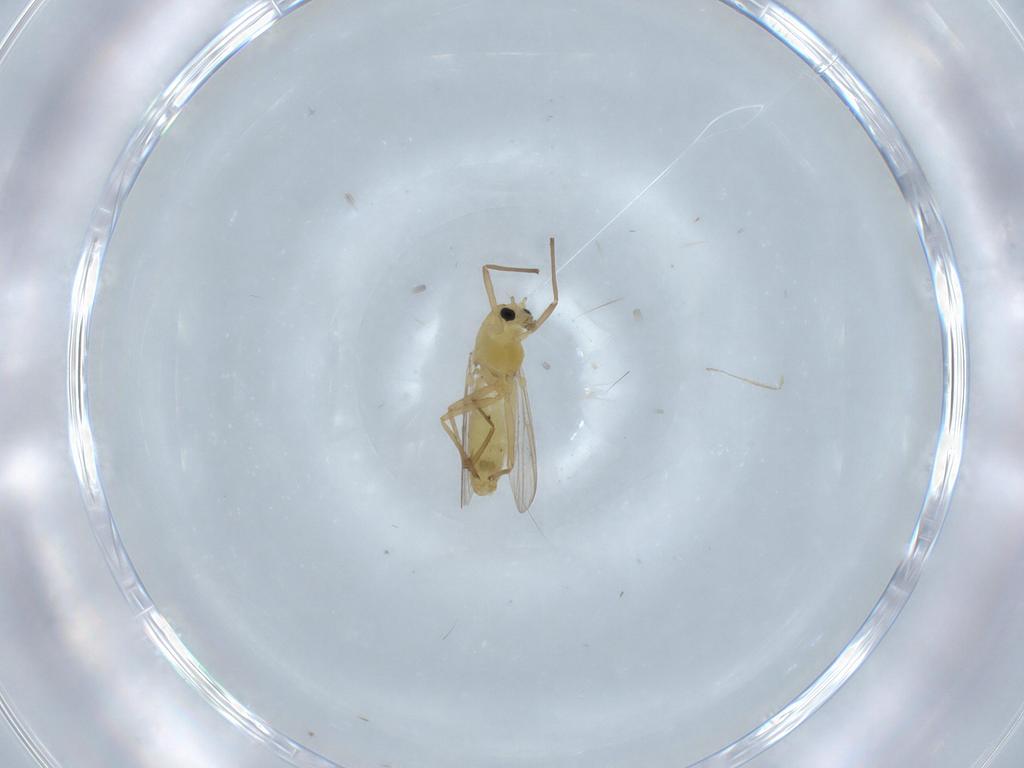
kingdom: Animalia
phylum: Arthropoda
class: Insecta
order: Diptera
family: Chironomidae
